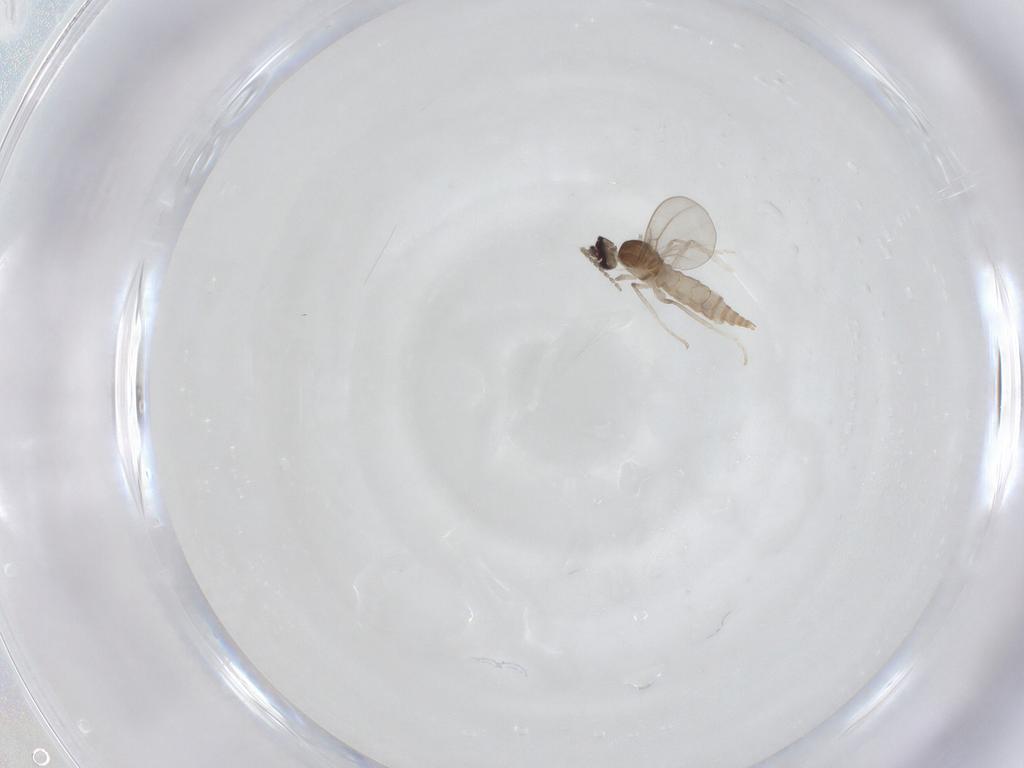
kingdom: Animalia
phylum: Arthropoda
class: Insecta
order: Diptera
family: Cecidomyiidae
